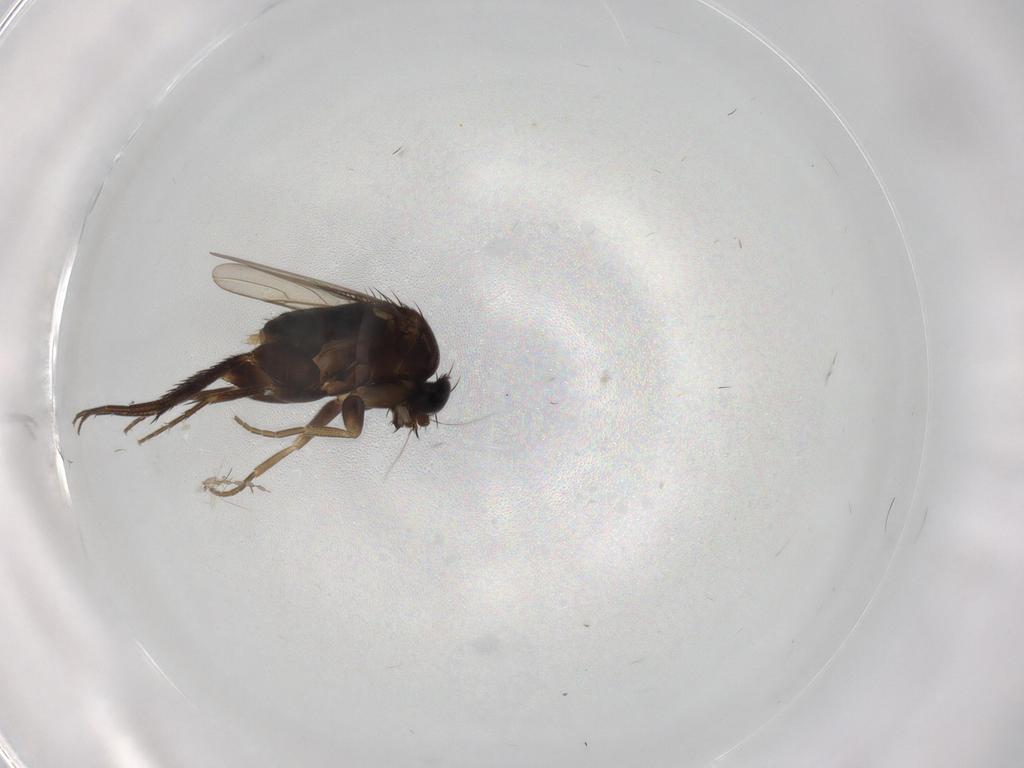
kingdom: Animalia
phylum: Arthropoda
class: Insecta
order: Diptera
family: Phoridae
